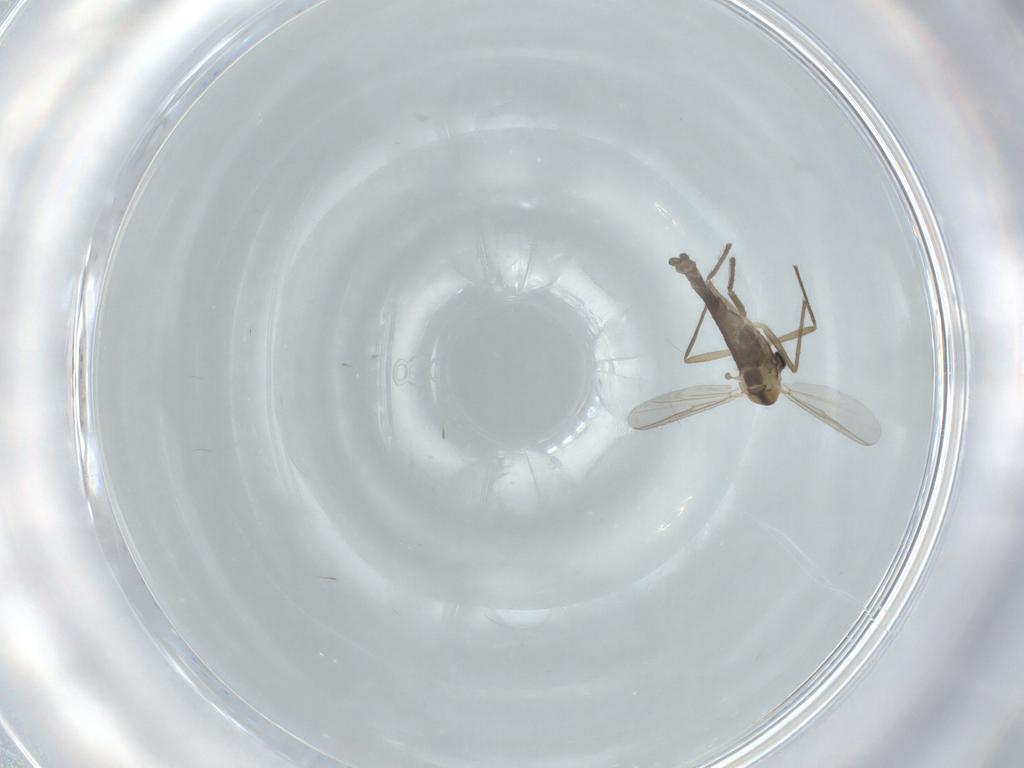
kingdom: Animalia
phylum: Arthropoda
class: Insecta
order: Diptera
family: Chironomidae
